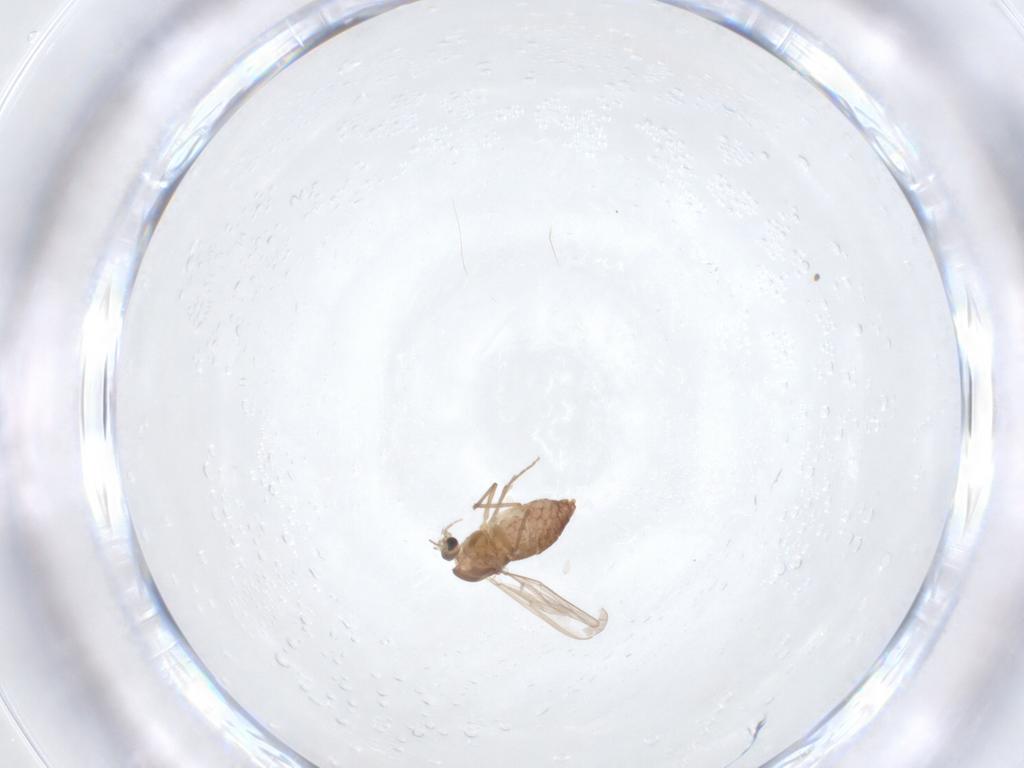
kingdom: Animalia
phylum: Arthropoda
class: Insecta
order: Diptera
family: Chironomidae
